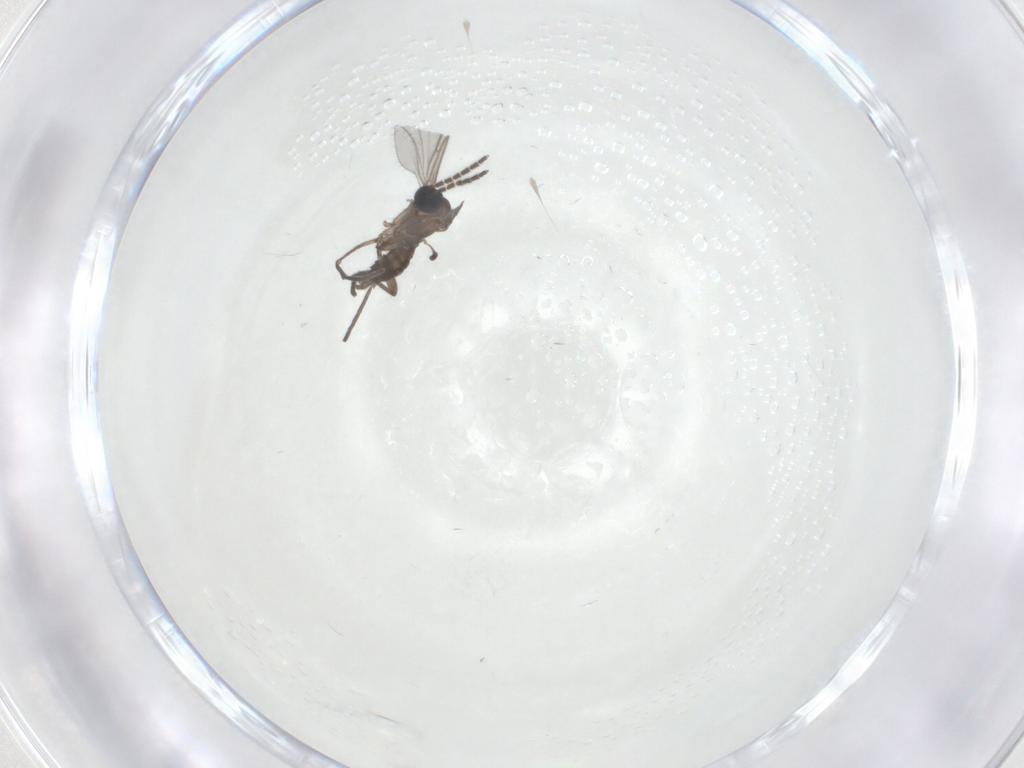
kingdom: Animalia
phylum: Arthropoda
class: Insecta
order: Diptera
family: Sciaridae
